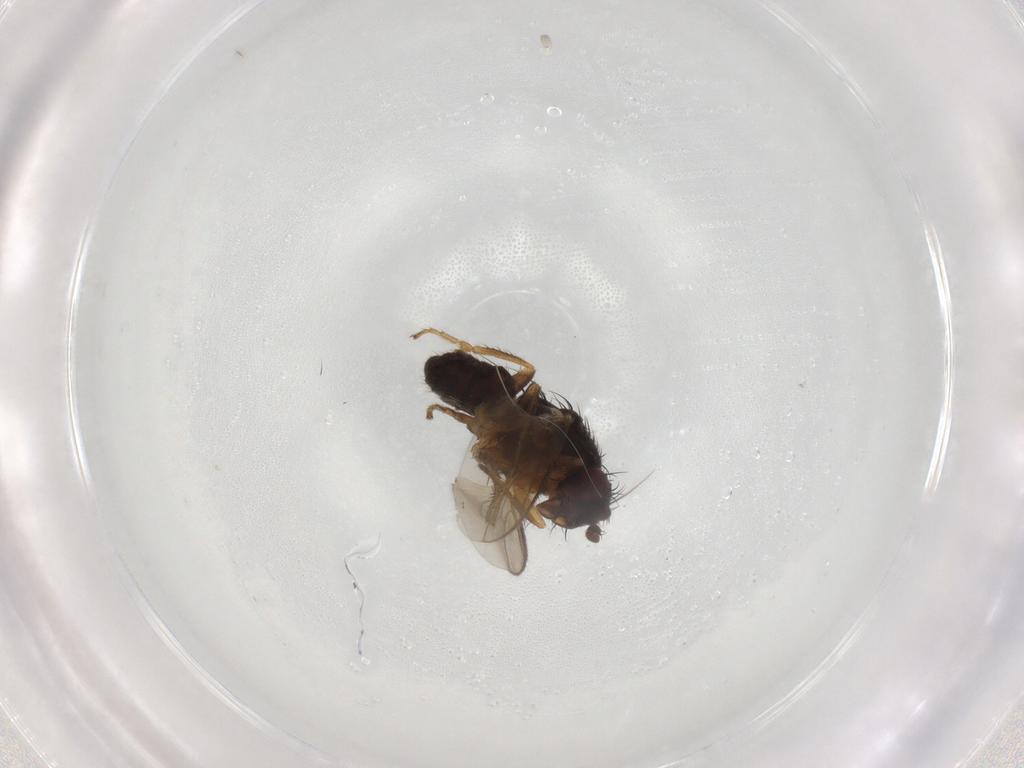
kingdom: Animalia
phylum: Arthropoda
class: Insecta
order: Diptera
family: Sphaeroceridae
